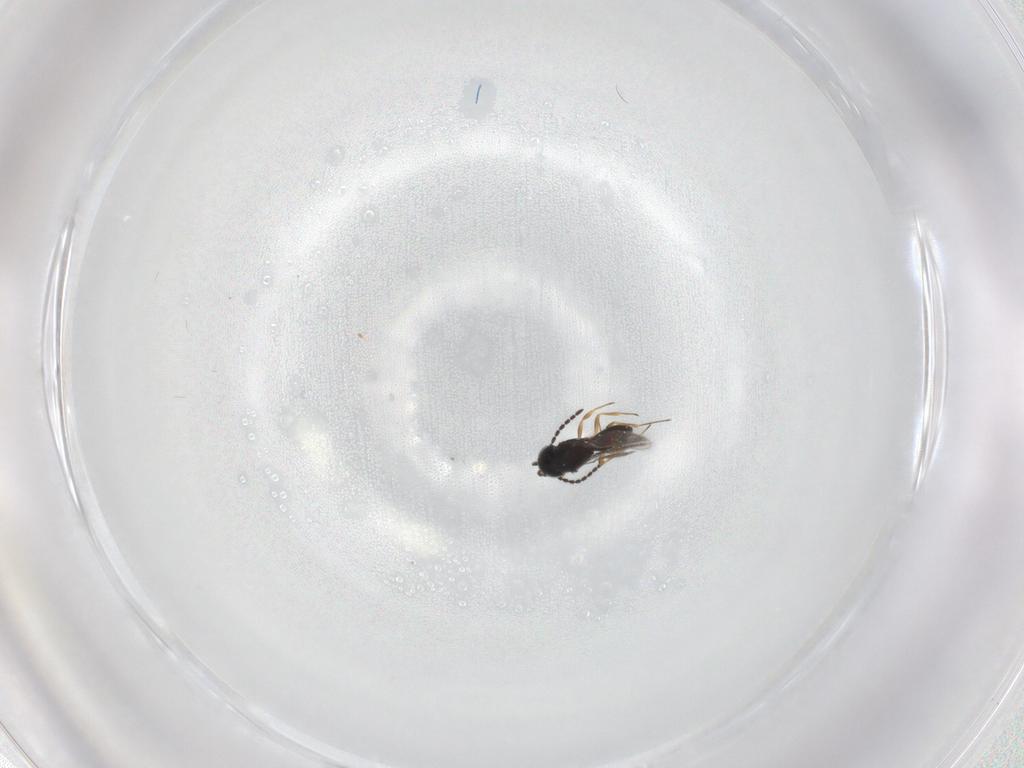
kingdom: Animalia
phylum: Arthropoda
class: Insecta
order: Hymenoptera
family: Scelionidae
